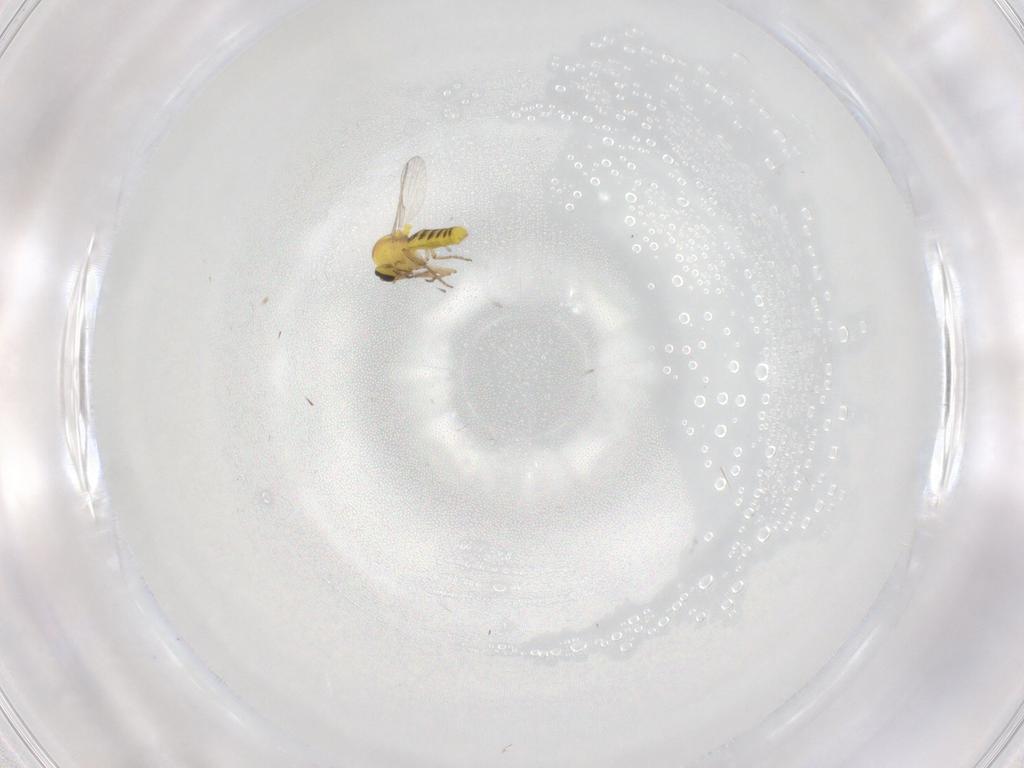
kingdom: Animalia
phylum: Arthropoda
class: Insecta
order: Diptera
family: Ceratopogonidae
